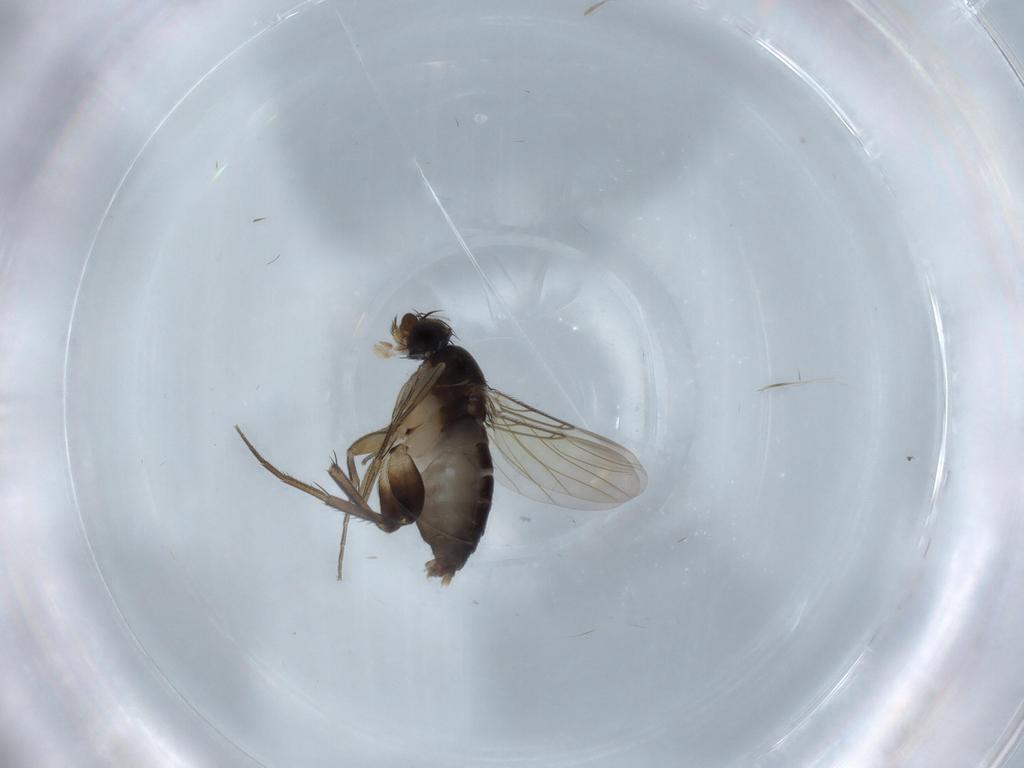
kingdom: Animalia
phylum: Arthropoda
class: Insecta
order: Diptera
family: Phoridae
